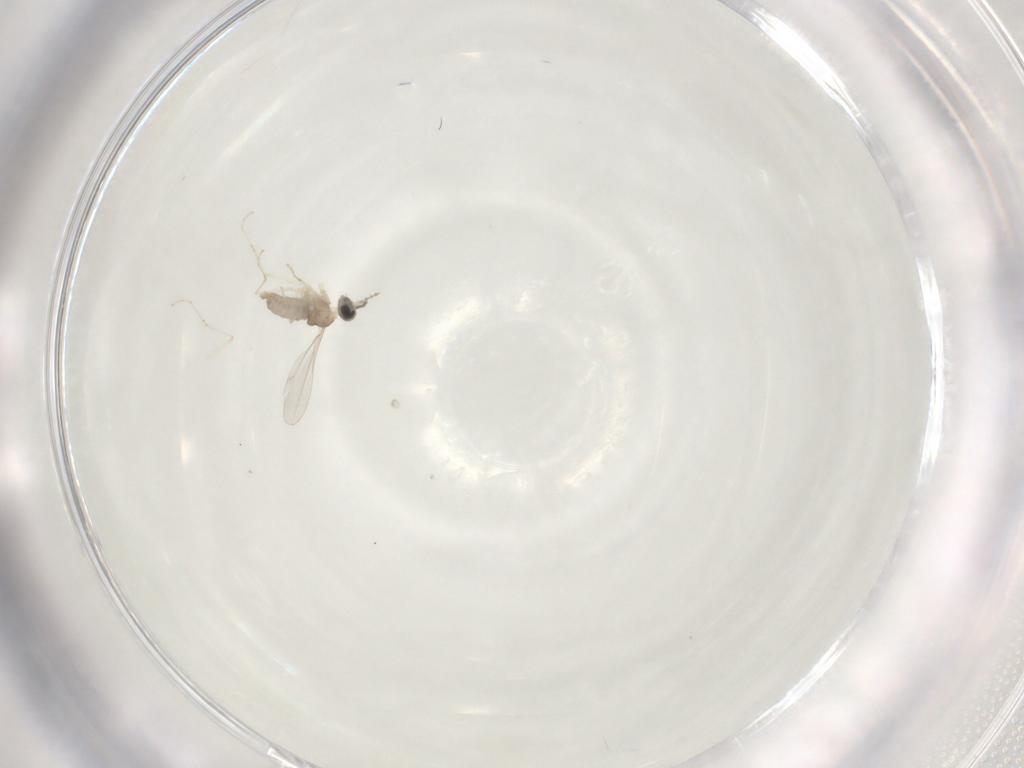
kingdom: Animalia
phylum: Arthropoda
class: Insecta
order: Diptera
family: Cecidomyiidae
